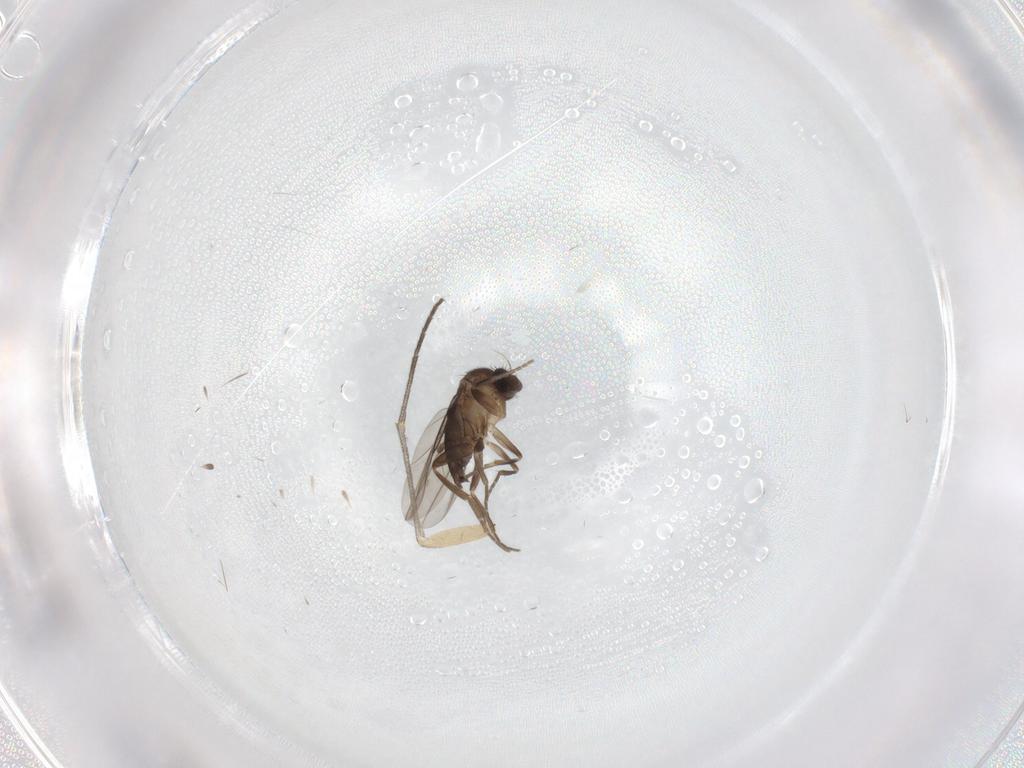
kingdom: Animalia
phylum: Arthropoda
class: Insecta
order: Diptera
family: Phoridae
